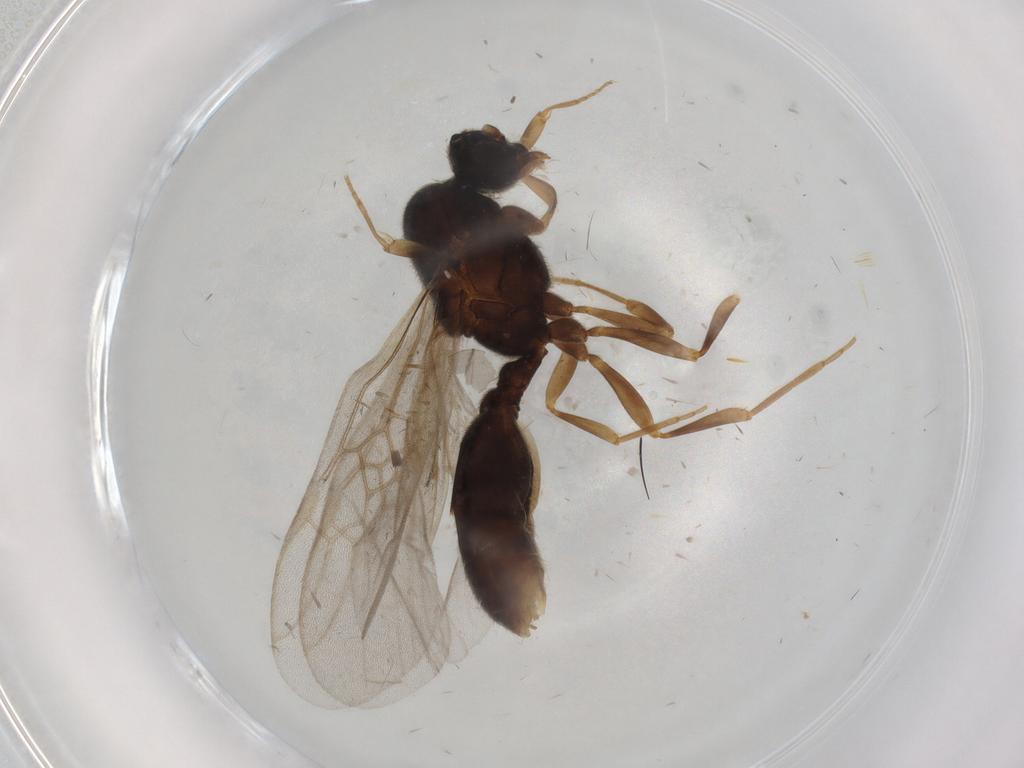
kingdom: Animalia
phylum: Arthropoda
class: Insecta
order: Hymenoptera
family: Formicidae
